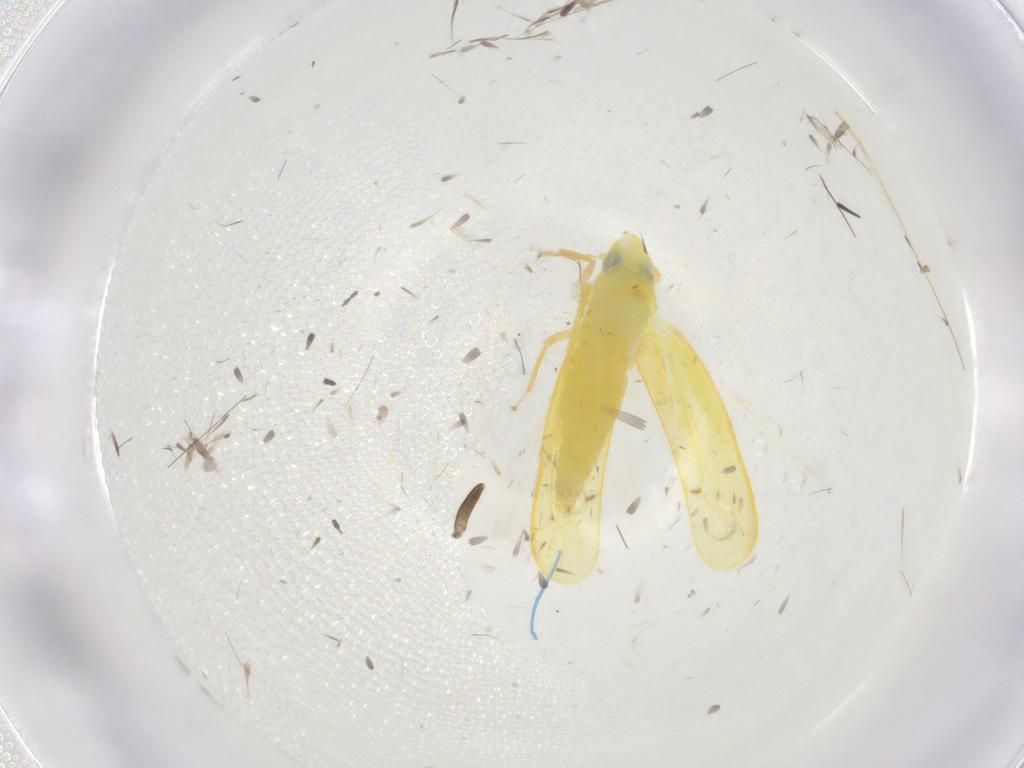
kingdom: Animalia
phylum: Arthropoda
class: Insecta
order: Hemiptera
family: Cicadellidae
